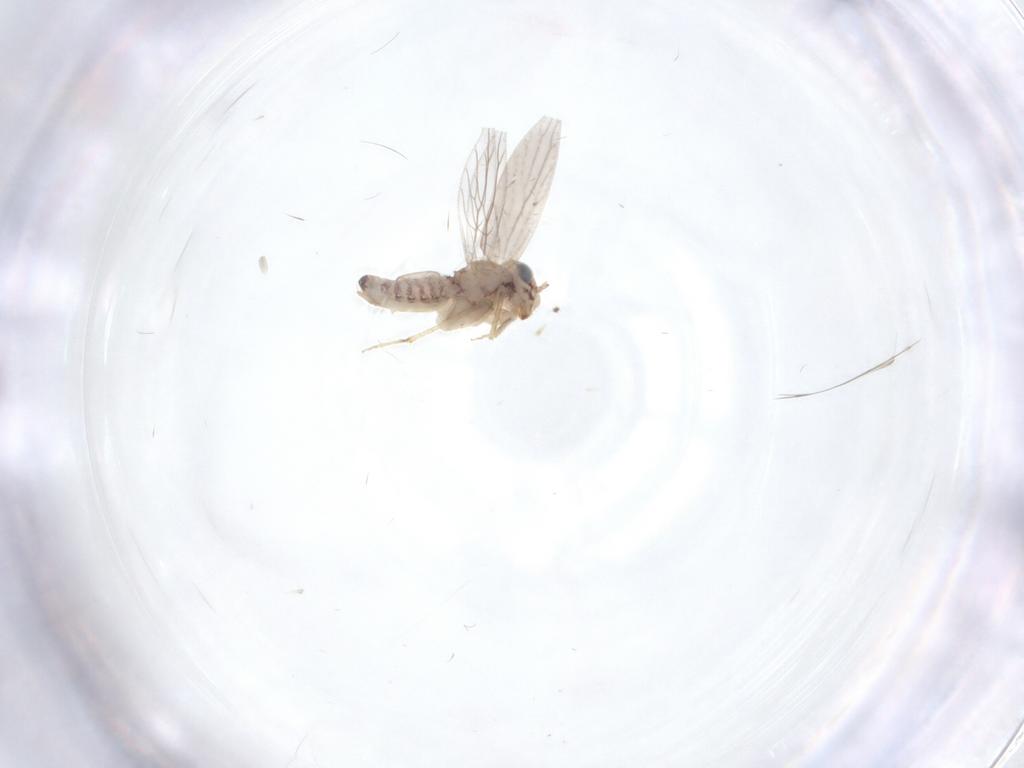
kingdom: Animalia
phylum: Arthropoda
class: Insecta
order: Psocodea
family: Lepidopsocidae
